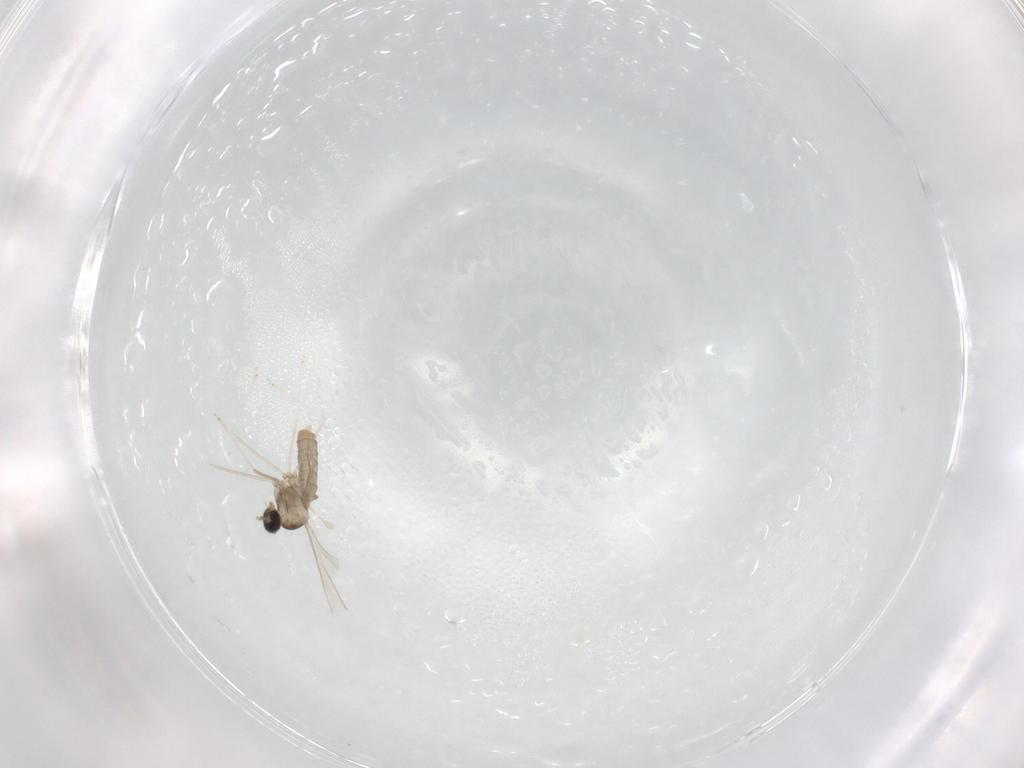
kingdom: Animalia
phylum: Arthropoda
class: Insecta
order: Diptera
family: Cecidomyiidae
